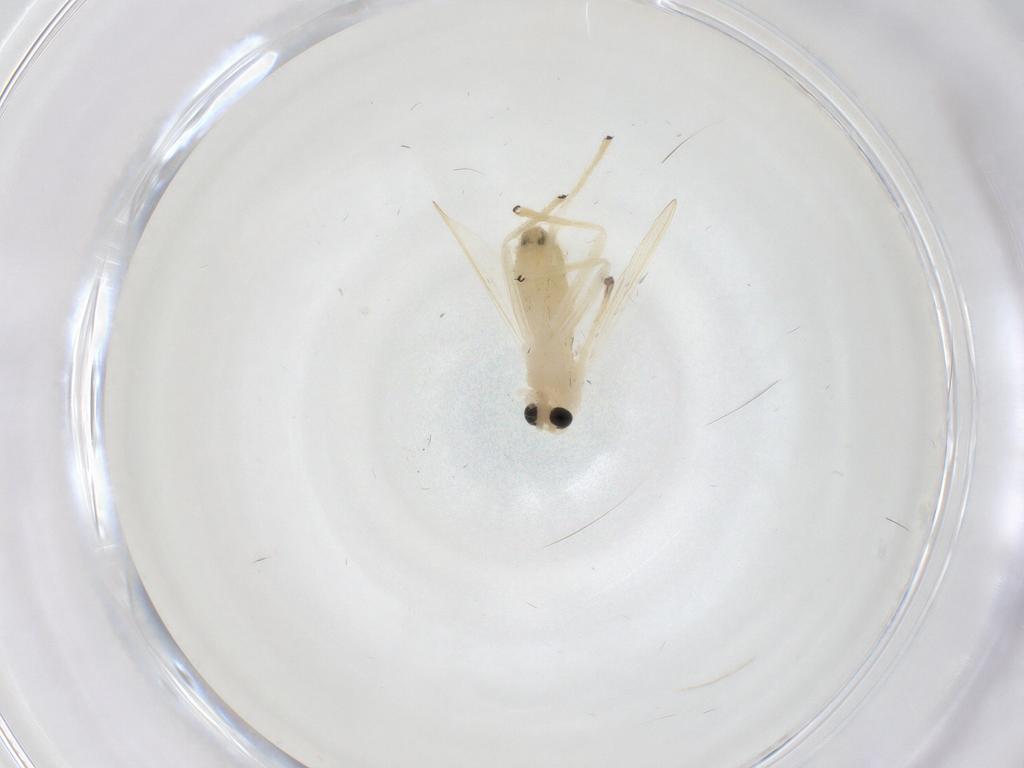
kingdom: Animalia
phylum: Arthropoda
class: Insecta
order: Diptera
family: Chironomidae
